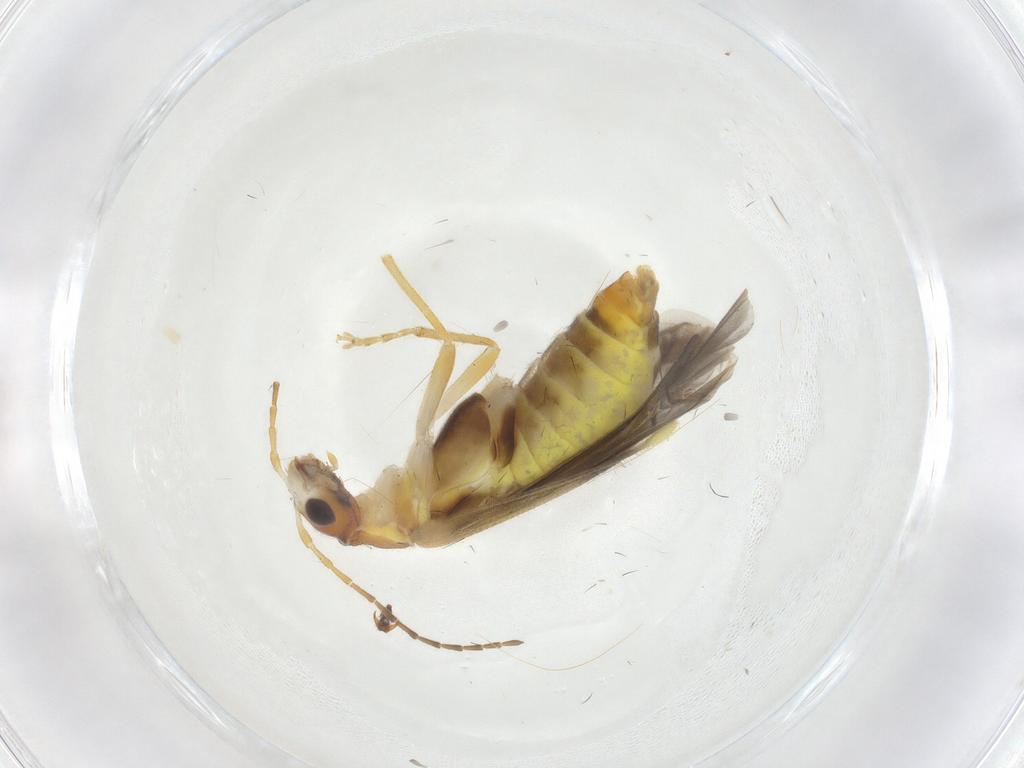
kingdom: Animalia
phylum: Arthropoda
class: Insecta
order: Coleoptera
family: Cantharidae
